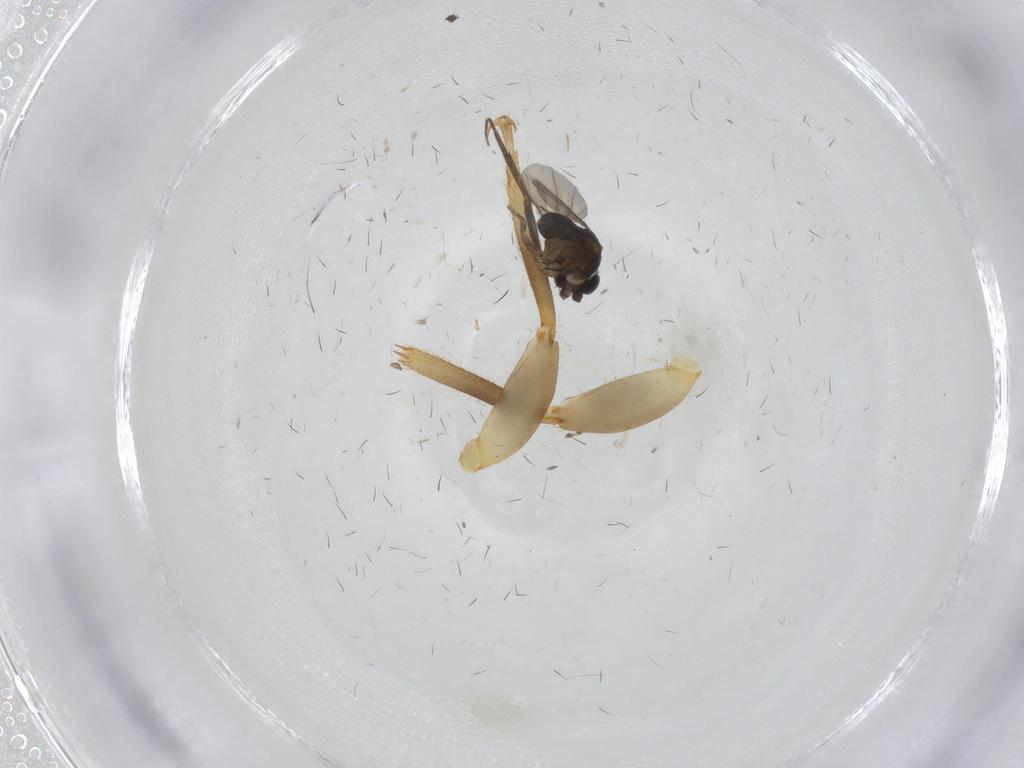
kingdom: Animalia
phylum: Arthropoda
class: Insecta
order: Diptera
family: Phoridae
